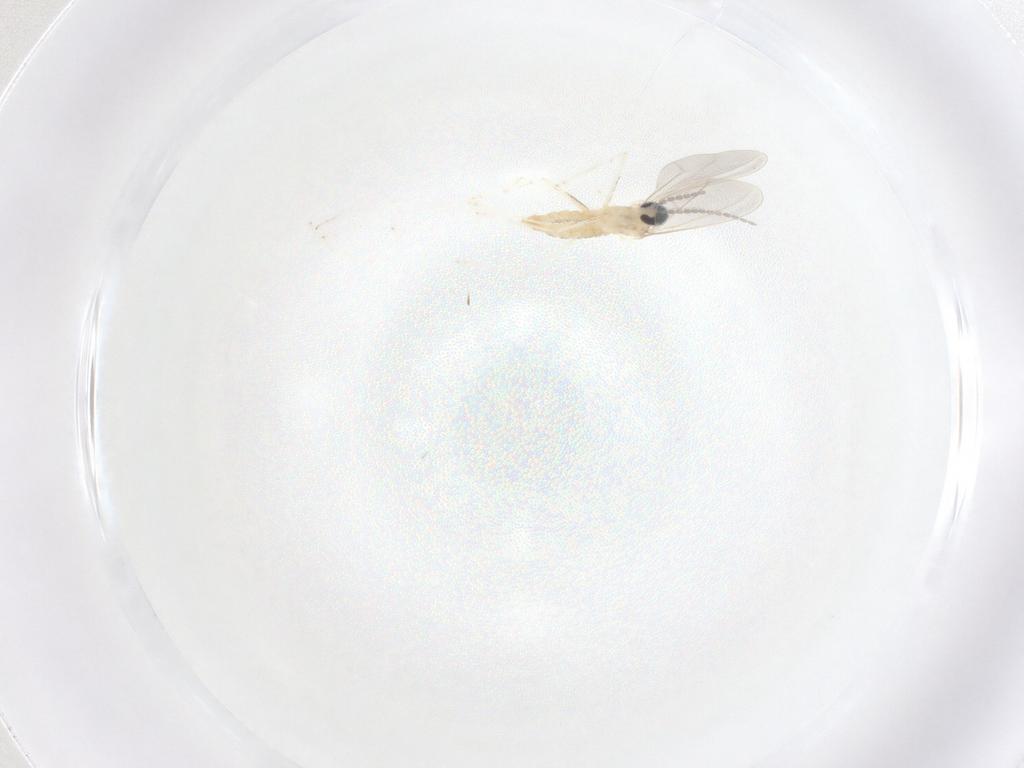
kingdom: Animalia
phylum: Arthropoda
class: Insecta
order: Diptera
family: Cecidomyiidae
